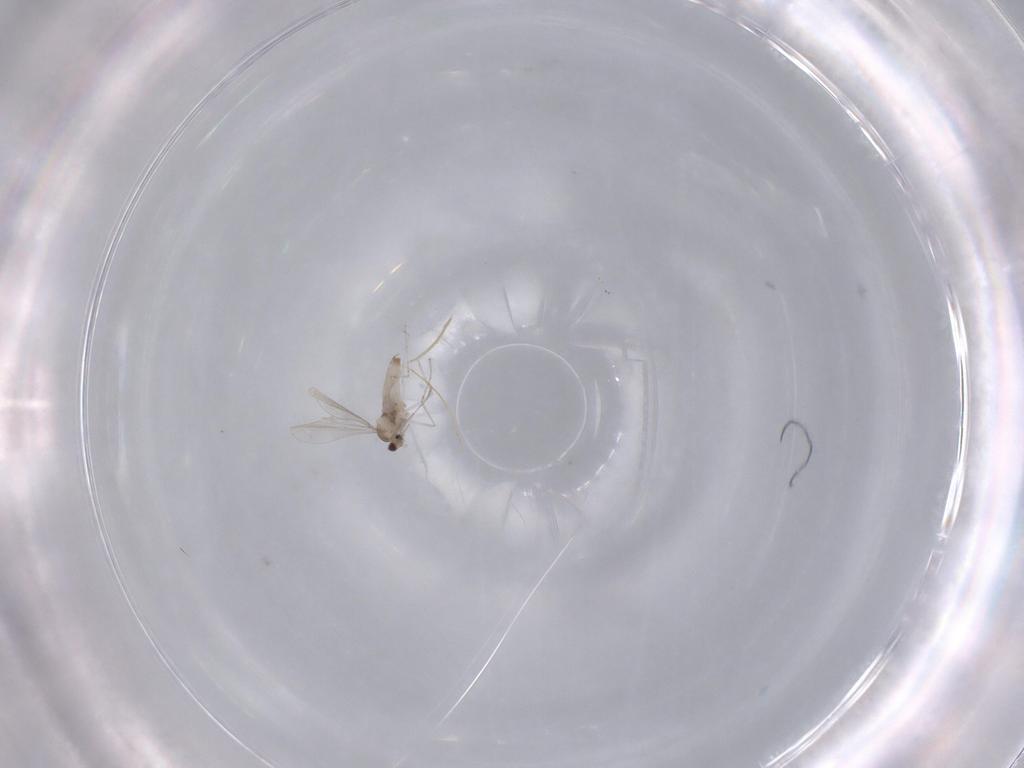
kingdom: Animalia
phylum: Arthropoda
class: Insecta
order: Diptera
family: Cecidomyiidae
